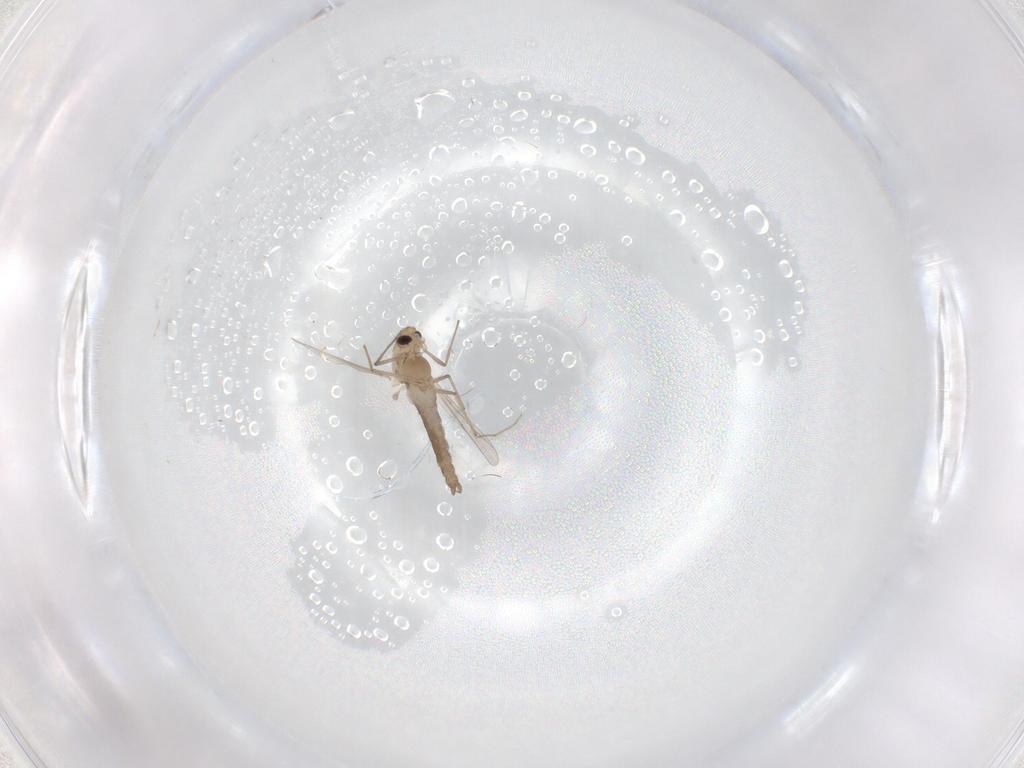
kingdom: Animalia
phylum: Arthropoda
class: Insecta
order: Diptera
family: Chironomidae
